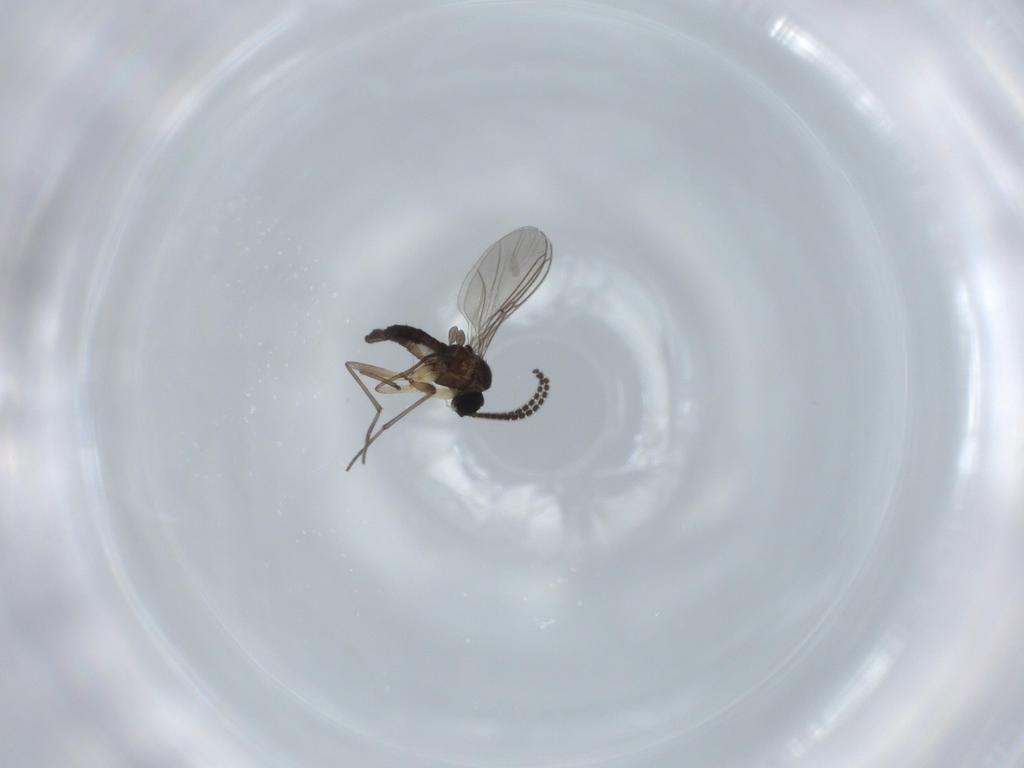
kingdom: Animalia
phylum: Arthropoda
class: Insecta
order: Diptera
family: Sciaridae
